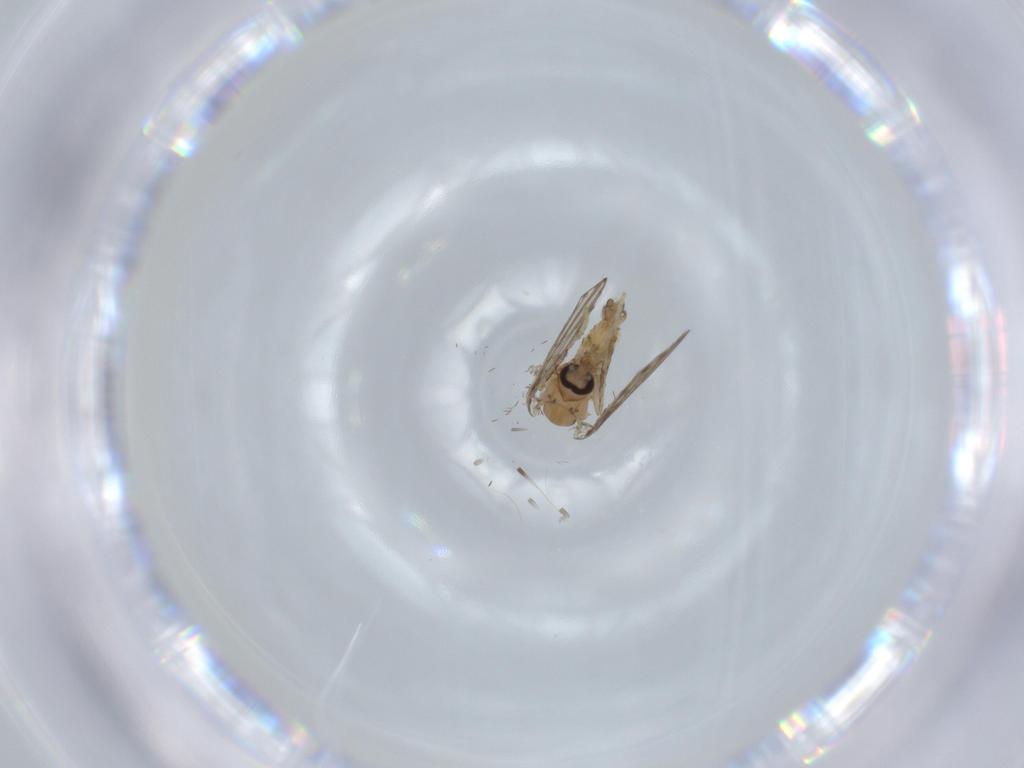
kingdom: Animalia
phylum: Arthropoda
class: Insecta
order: Diptera
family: Psychodidae
